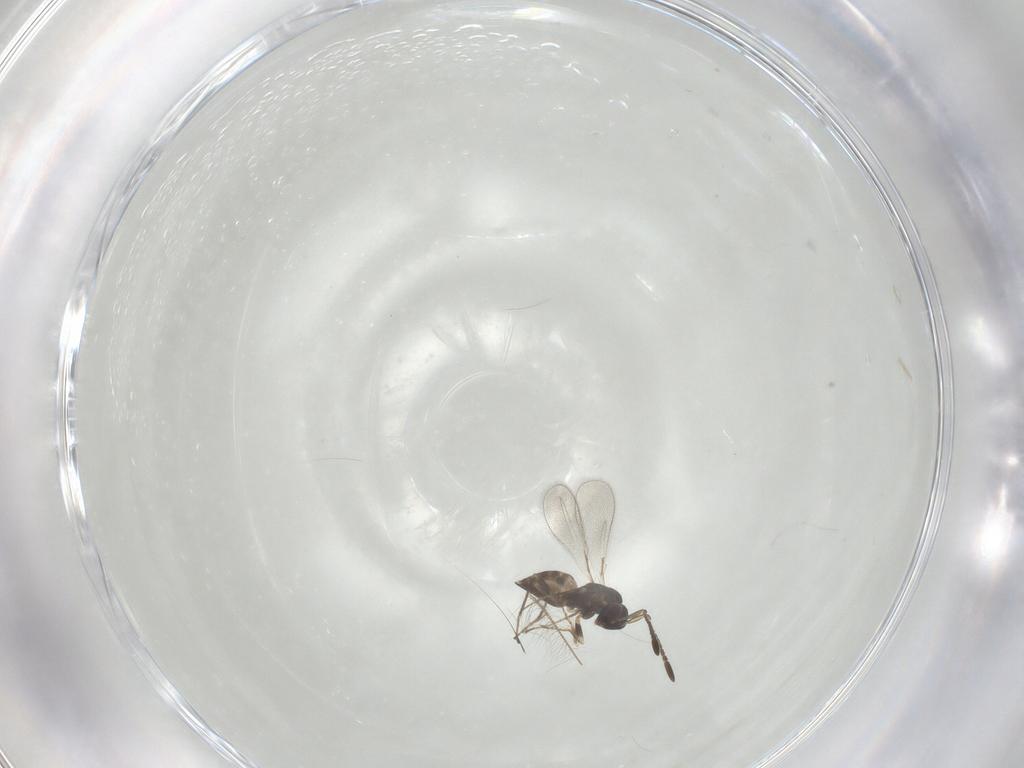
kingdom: Animalia
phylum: Arthropoda
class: Insecta
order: Hymenoptera
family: Mymaridae
